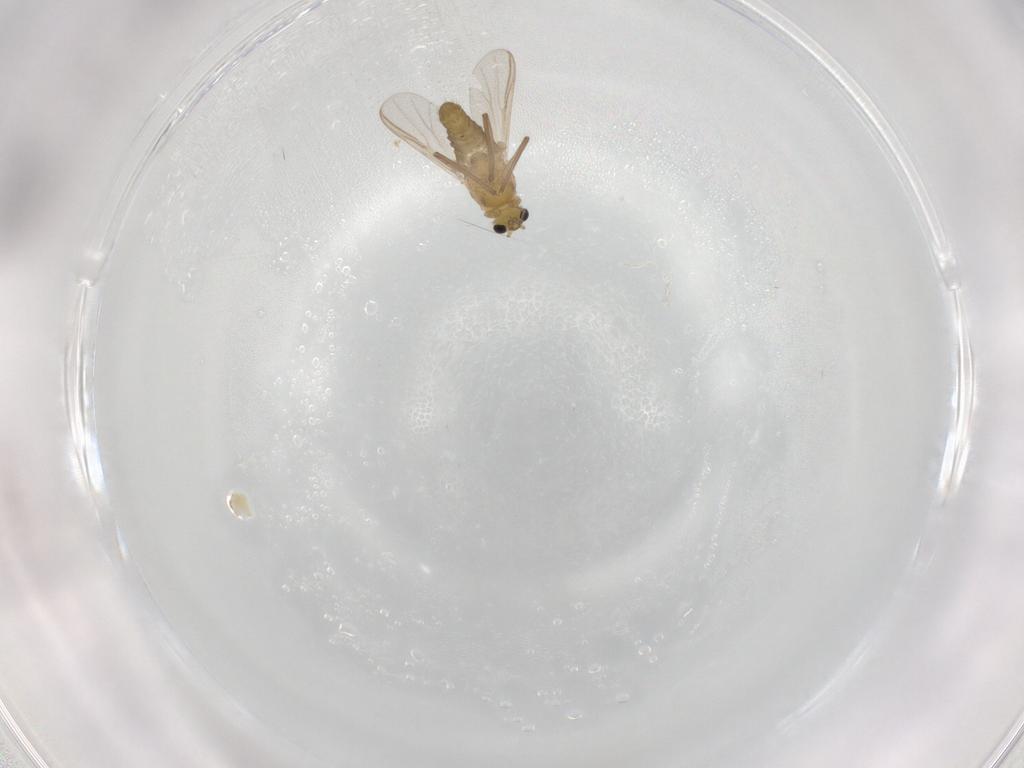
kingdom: Animalia
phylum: Arthropoda
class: Insecta
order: Diptera
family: Chironomidae
